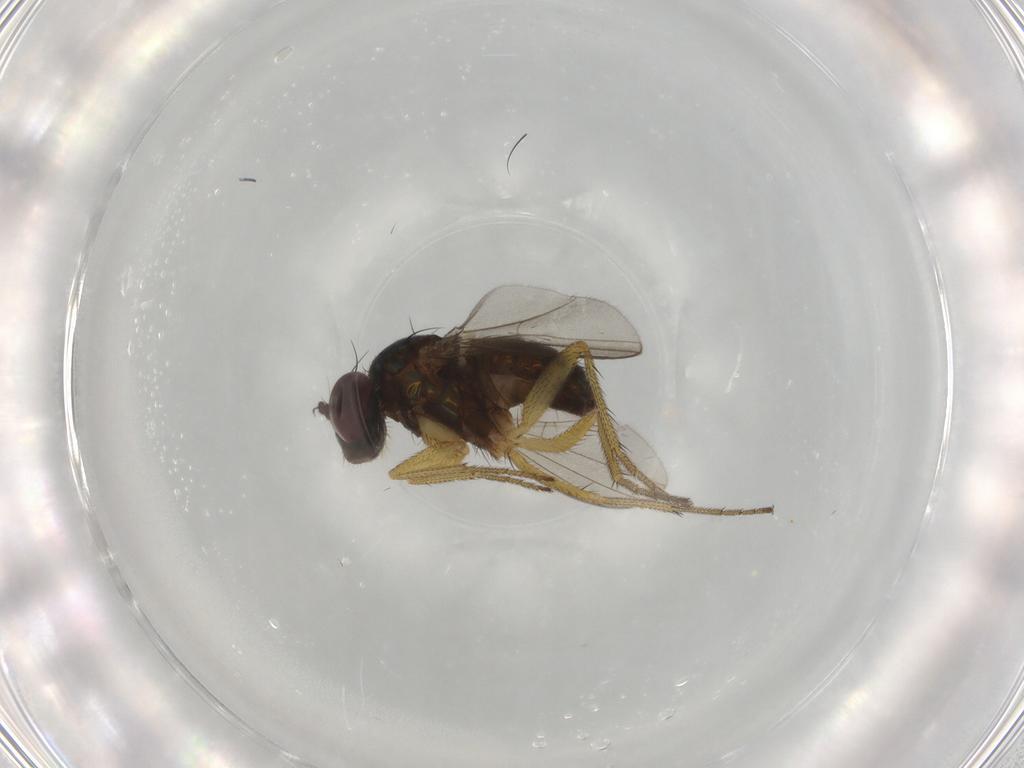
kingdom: Animalia
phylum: Arthropoda
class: Insecta
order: Diptera
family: Dolichopodidae
